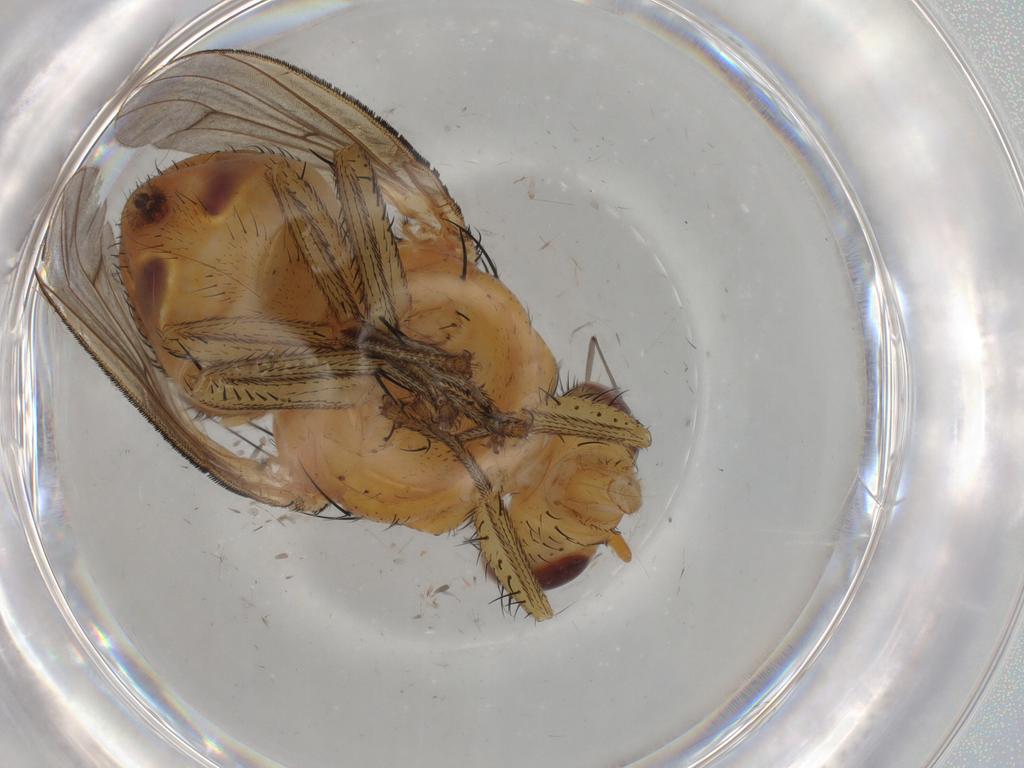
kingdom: Animalia
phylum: Arthropoda
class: Insecta
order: Diptera
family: Phoridae
